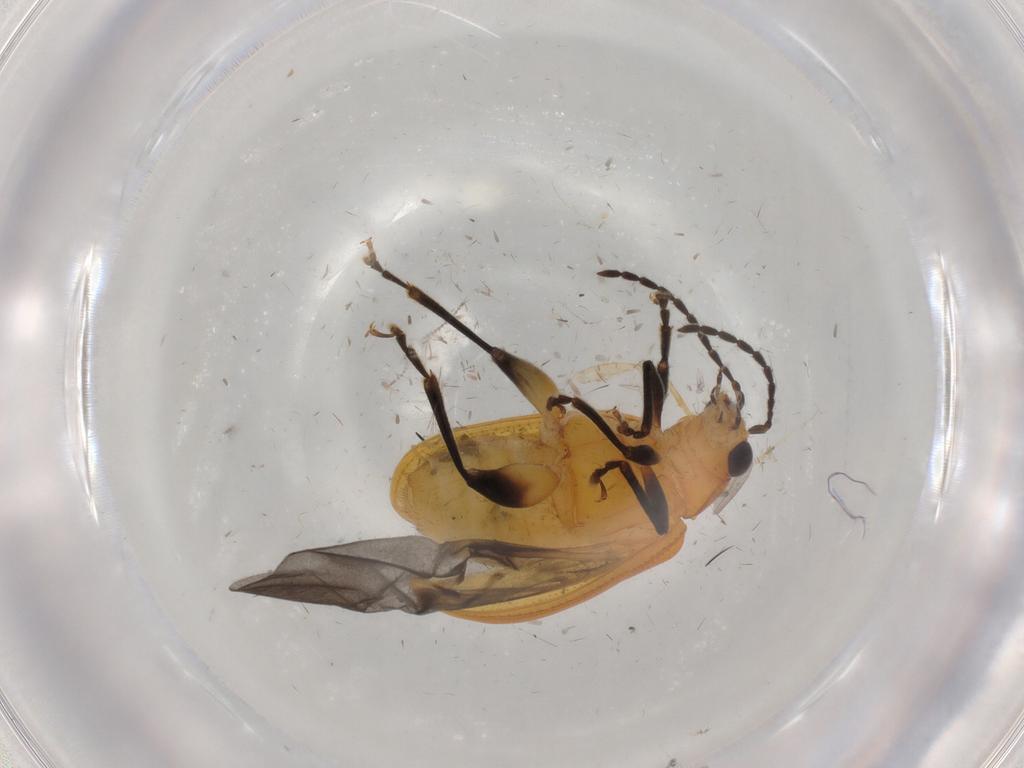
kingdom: Animalia
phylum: Arthropoda
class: Insecta
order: Coleoptera
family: Chrysomelidae
